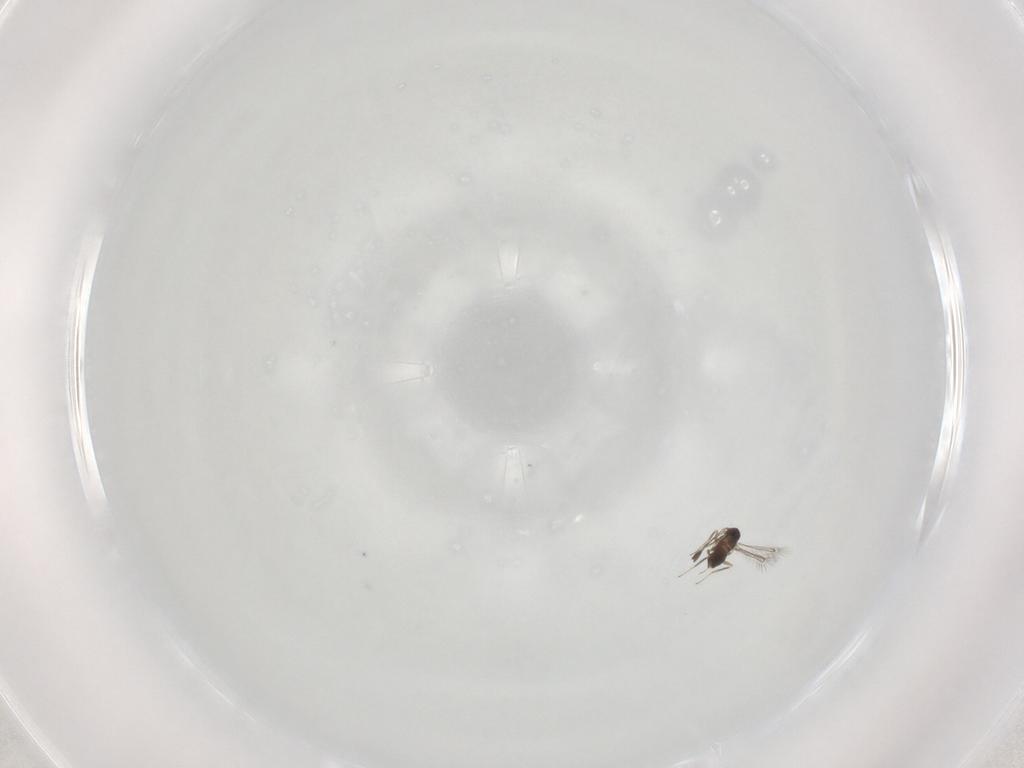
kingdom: Animalia
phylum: Arthropoda
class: Insecta
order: Hymenoptera
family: Mymaridae
